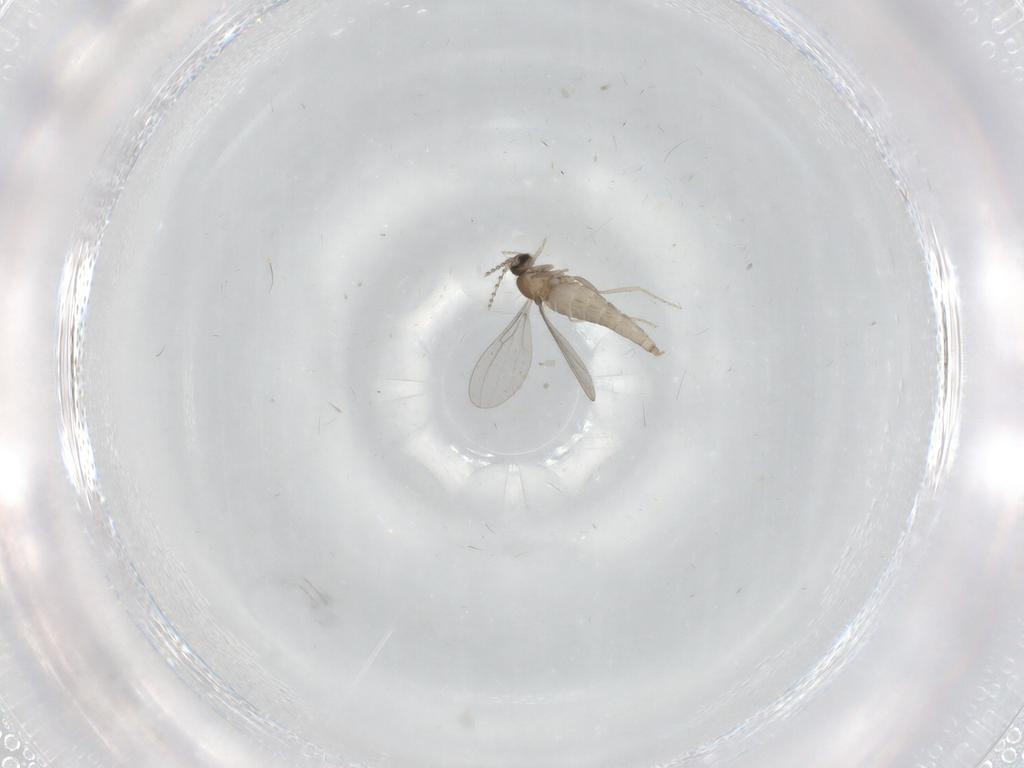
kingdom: Animalia
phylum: Arthropoda
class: Insecta
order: Diptera
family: Cecidomyiidae
